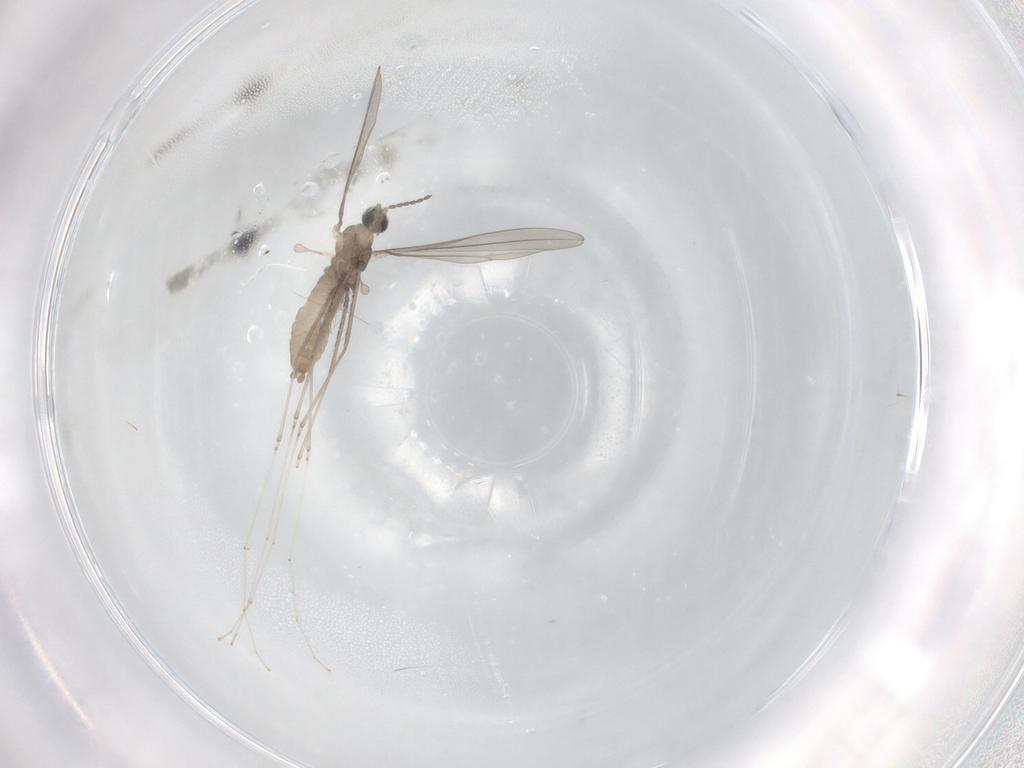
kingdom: Animalia
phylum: Arthropoda
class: Insecta
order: Diptera
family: Cecidomyiidae
